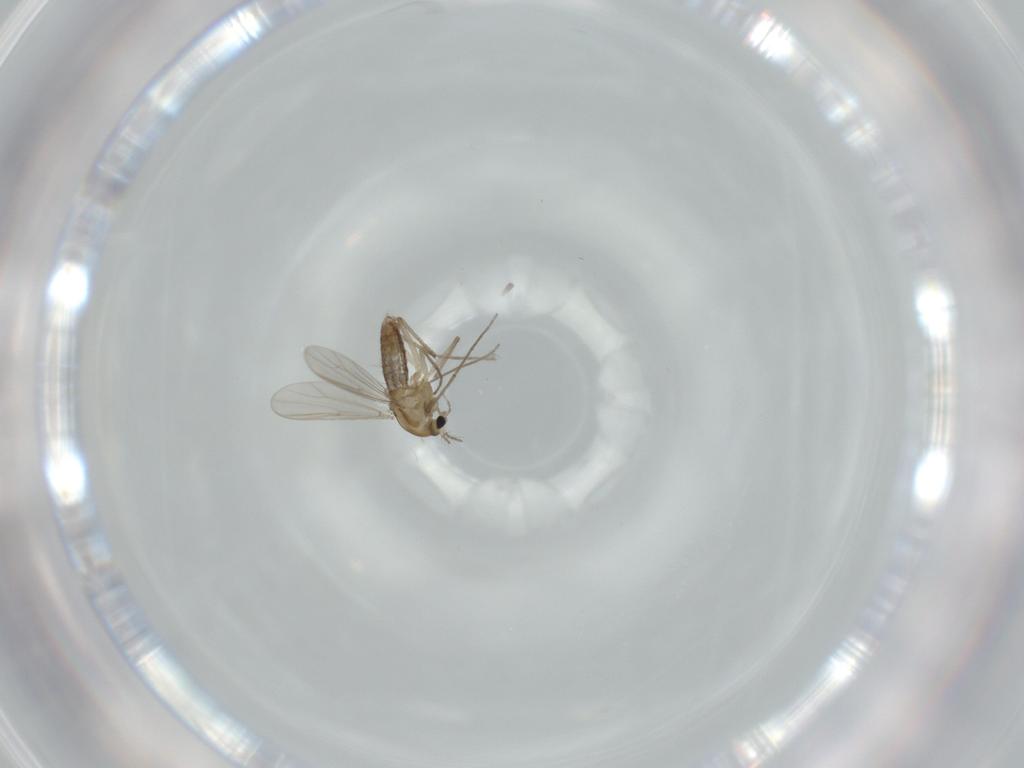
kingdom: Animalia
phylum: Arthropoda
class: Insecta
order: Diptera
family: Chironomidae
